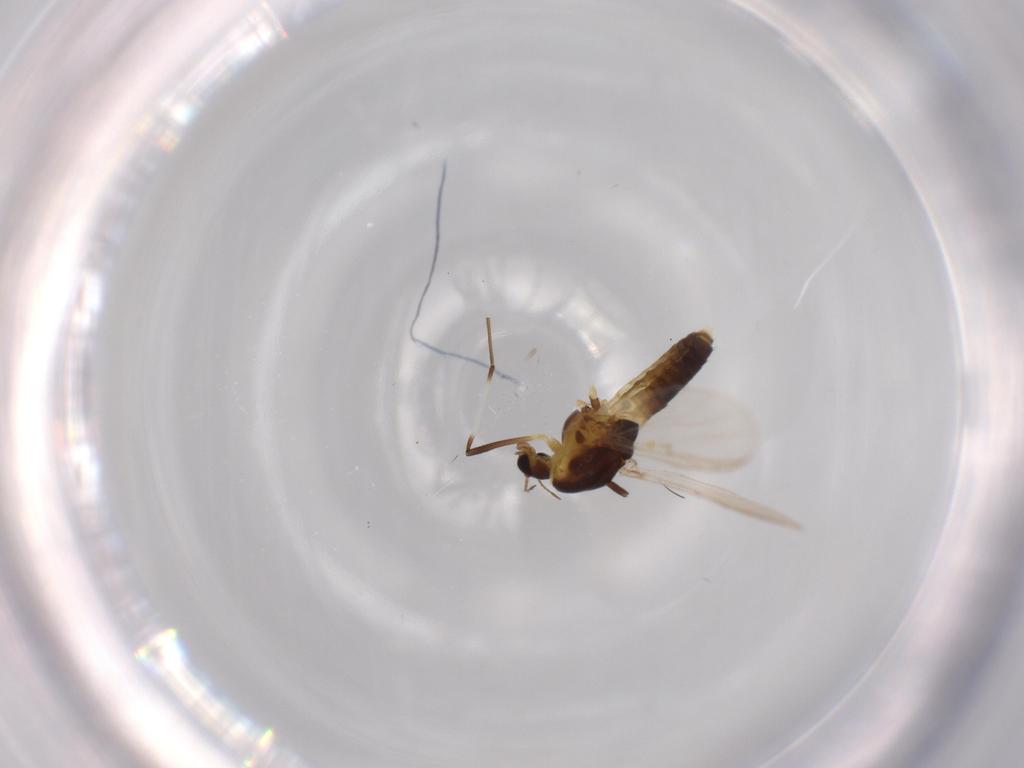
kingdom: Animalia
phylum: Arthropoda
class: Insecta
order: Diptera
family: Chironomidae
